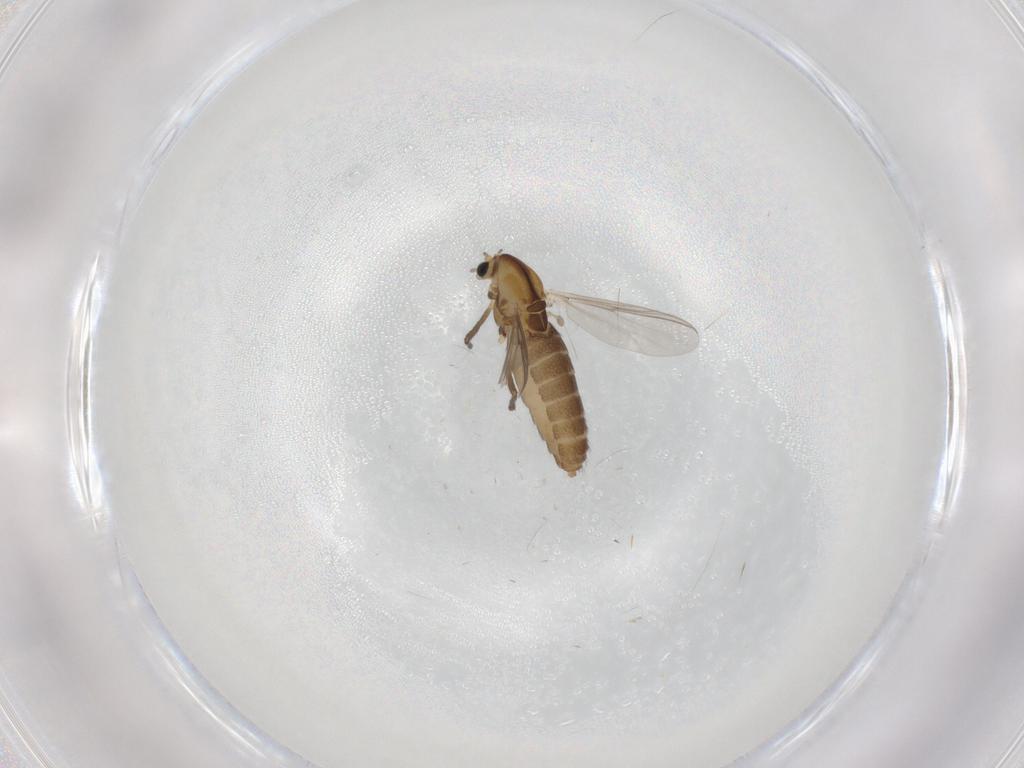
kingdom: Animalia
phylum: Arthropoda
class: Insecta
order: Diptera
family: Chironomidae
